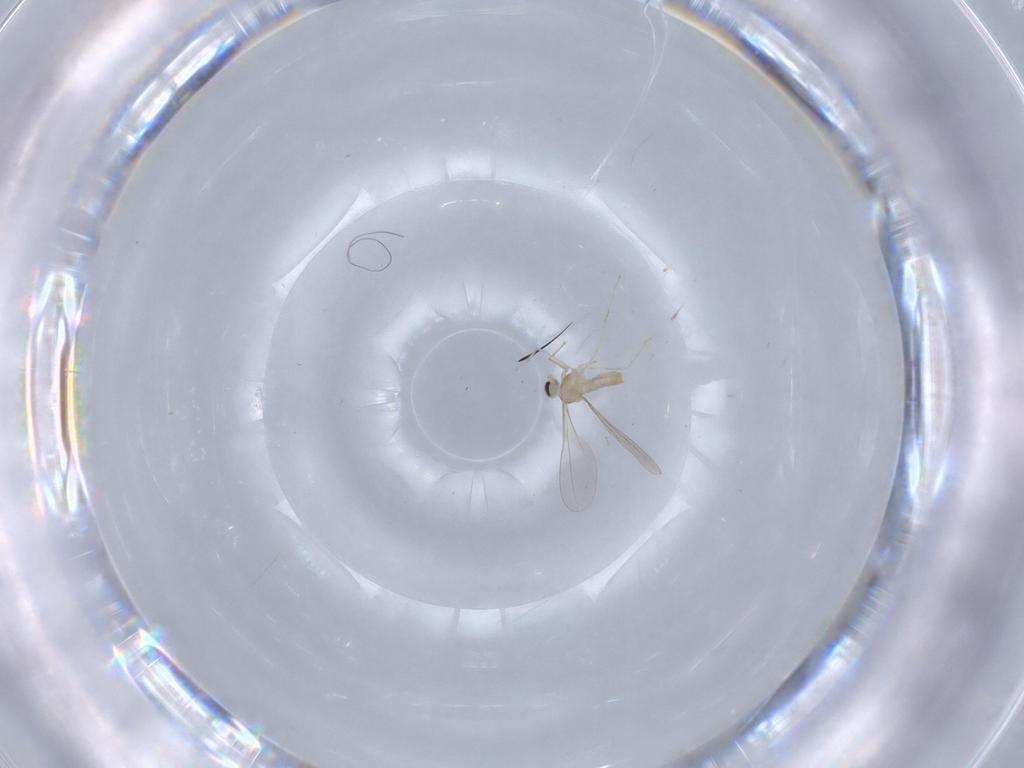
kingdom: Animalia
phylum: Arthropoda
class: Insecta
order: Diptera
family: Cecidomyiidae
